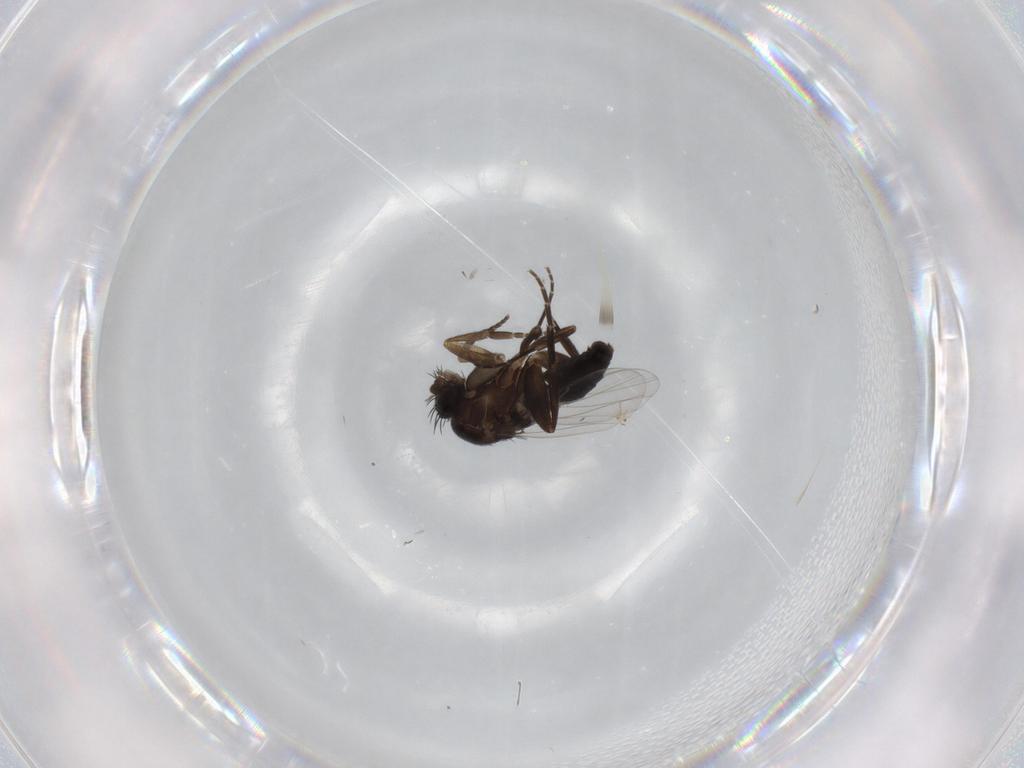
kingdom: Animalia
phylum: Arthropoda
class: Insecta
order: Diptera
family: Phoridae
